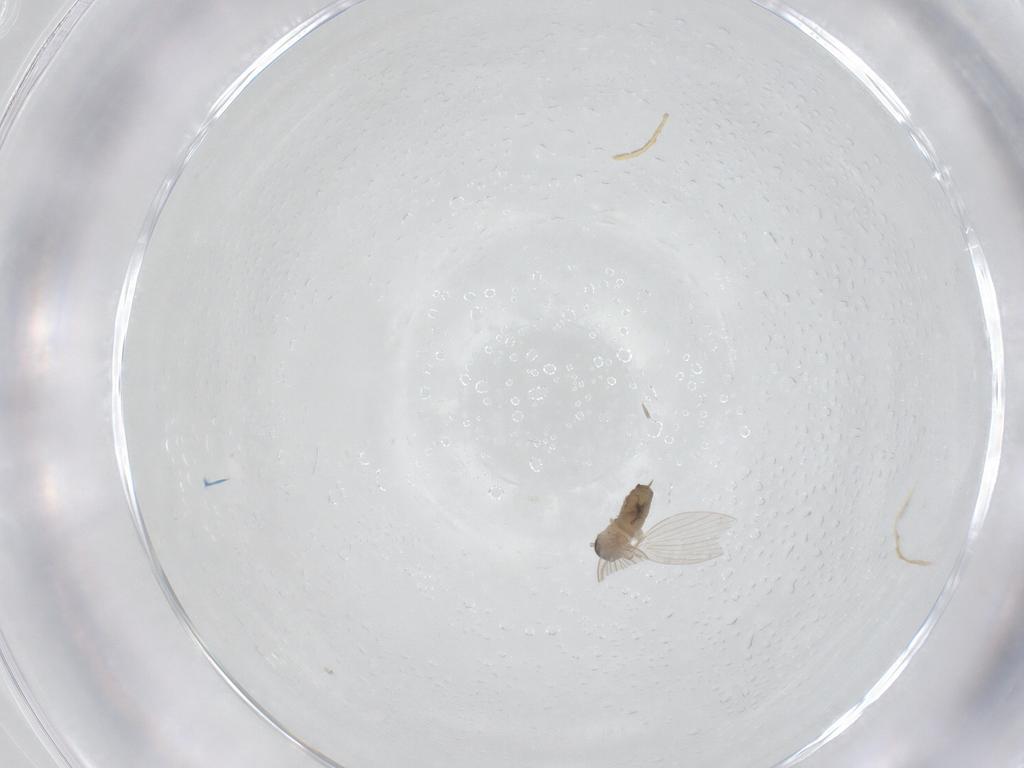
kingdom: Animalia
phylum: Arthropoda
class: Insecta
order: Diptera
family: Psychodidae
